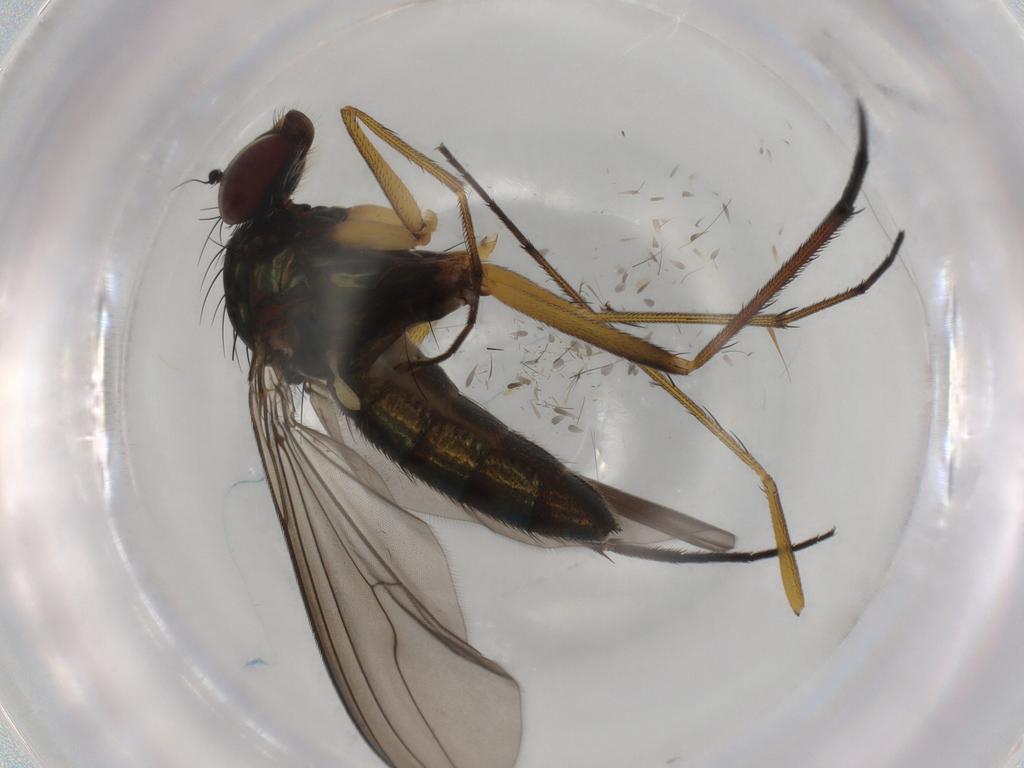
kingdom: Animalia
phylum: Arthropoda
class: Insecta
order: Diptera
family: Dolichopodidae
